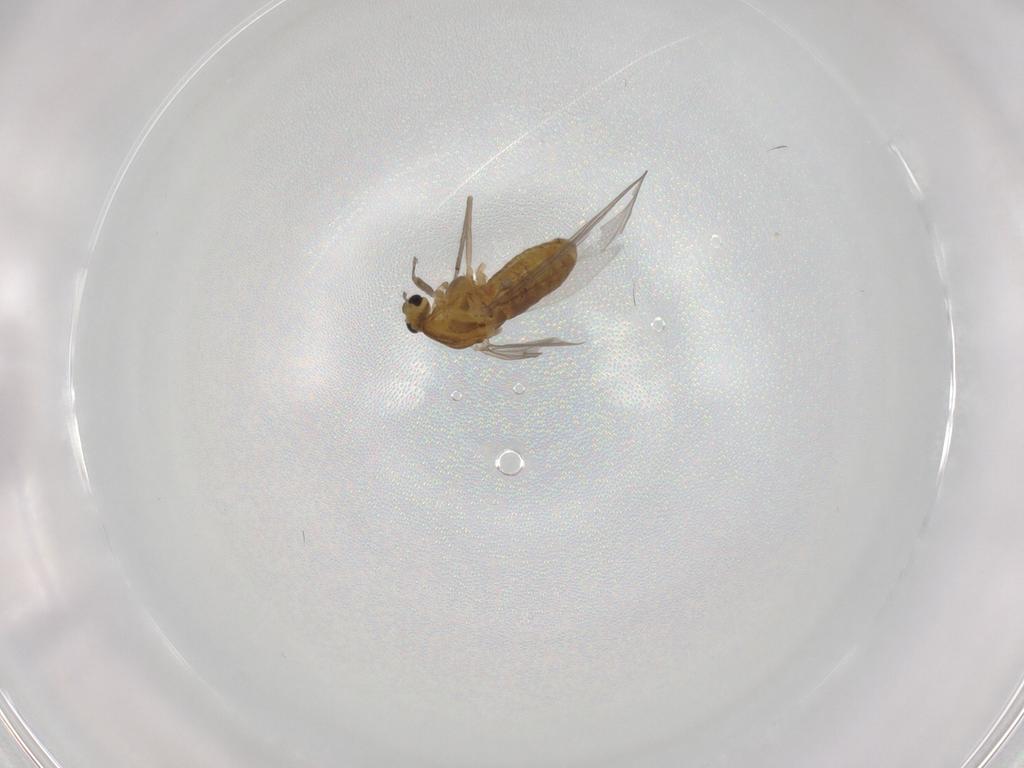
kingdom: Animalia
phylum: Arthropoda
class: Insecta
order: Diptera
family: Chironomidae
